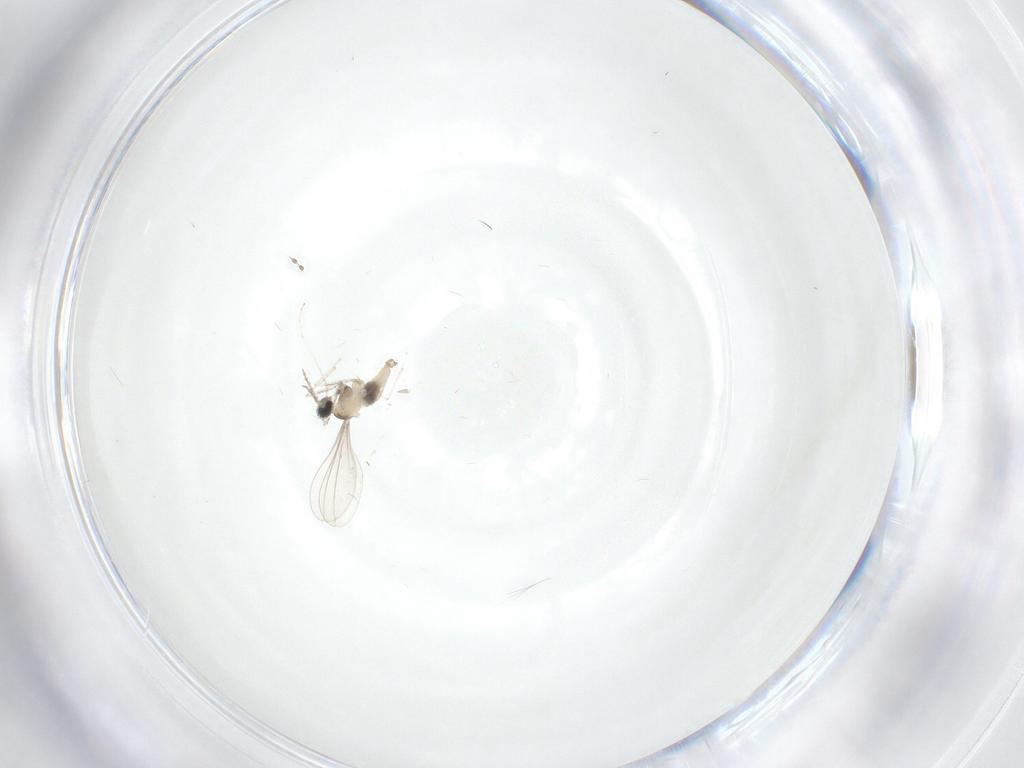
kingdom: Animalia
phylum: Arthropoda
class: Insecta
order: Diptera
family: Cecidomyiidae
